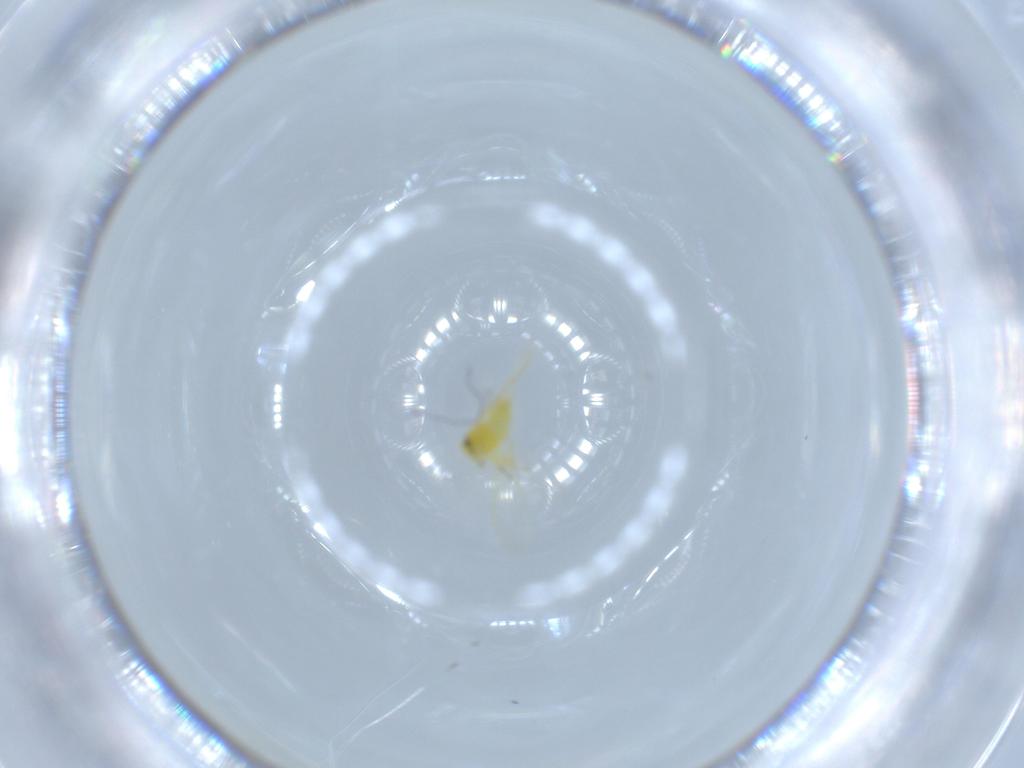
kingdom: Animalia
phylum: Arthropoda
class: Insecta
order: Hemiptera
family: Aleyrodidae
